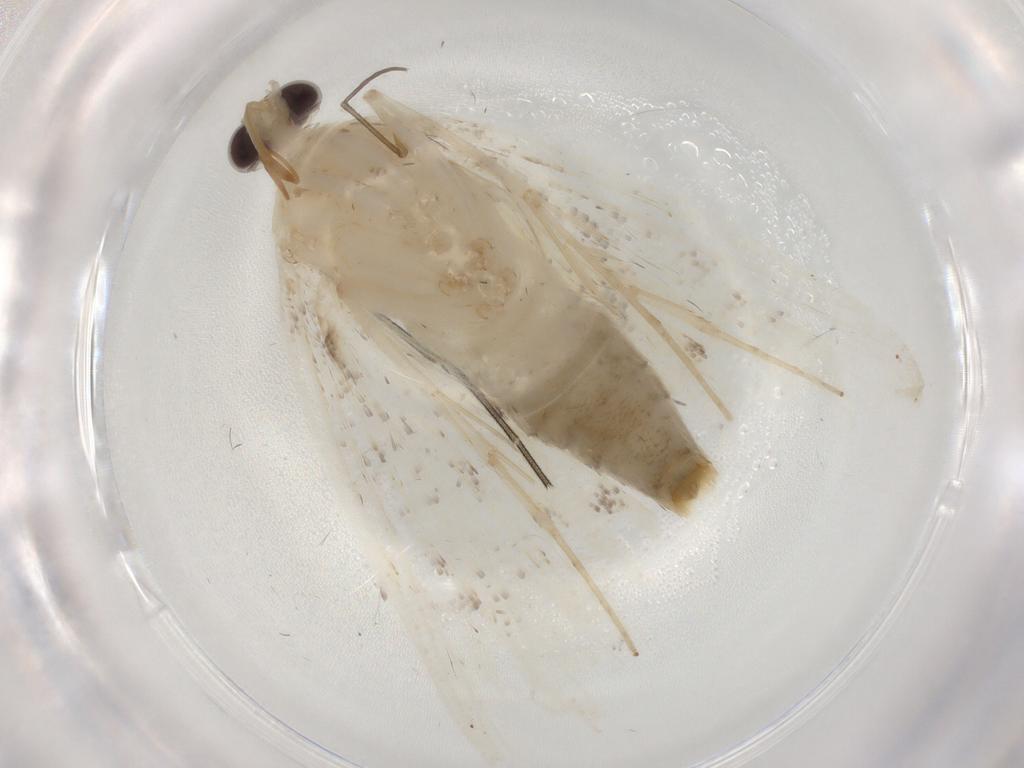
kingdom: Animalia
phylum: Arthropoda
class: Insecta
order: Lepidoptera
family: Crambidae
